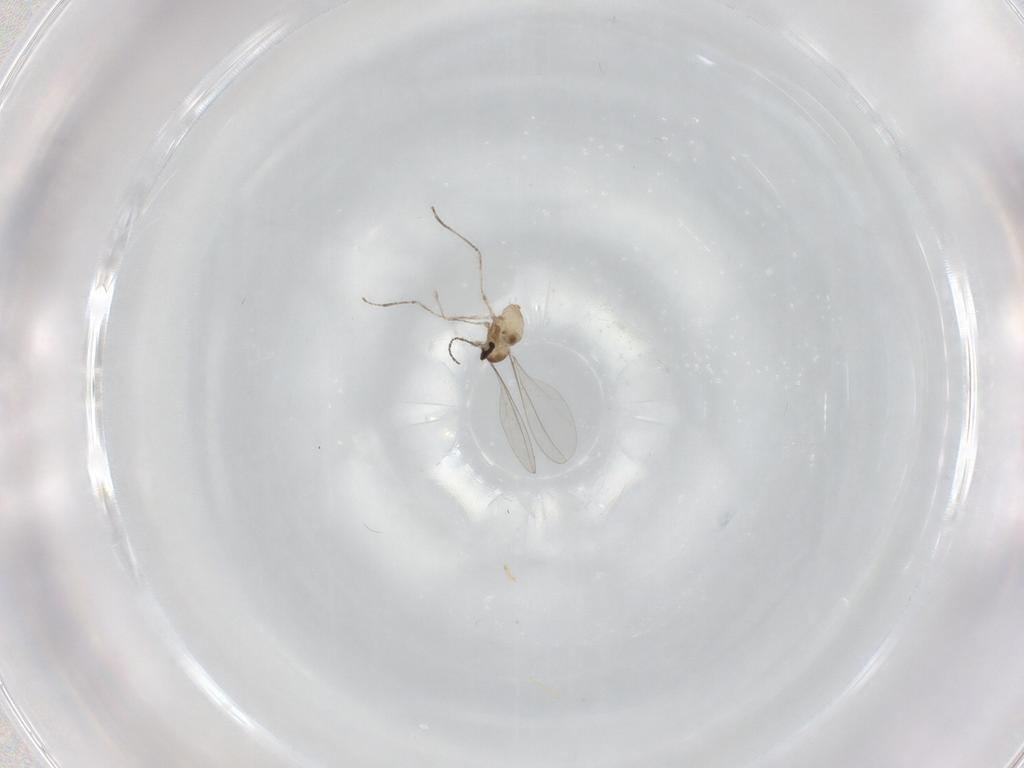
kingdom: Animalia
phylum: Arthropoda
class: Insecta
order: Diptera
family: Cecidomyiidae
